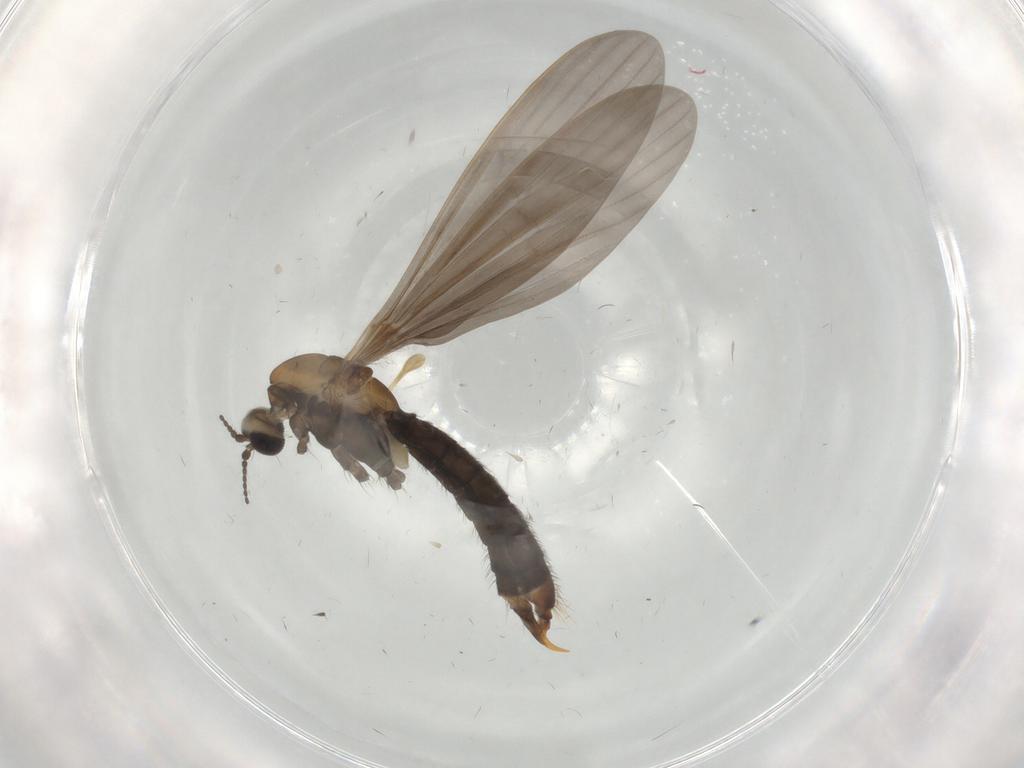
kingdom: Animalia
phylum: Arthropoda
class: Insecta
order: Diptera
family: Limoniidae
